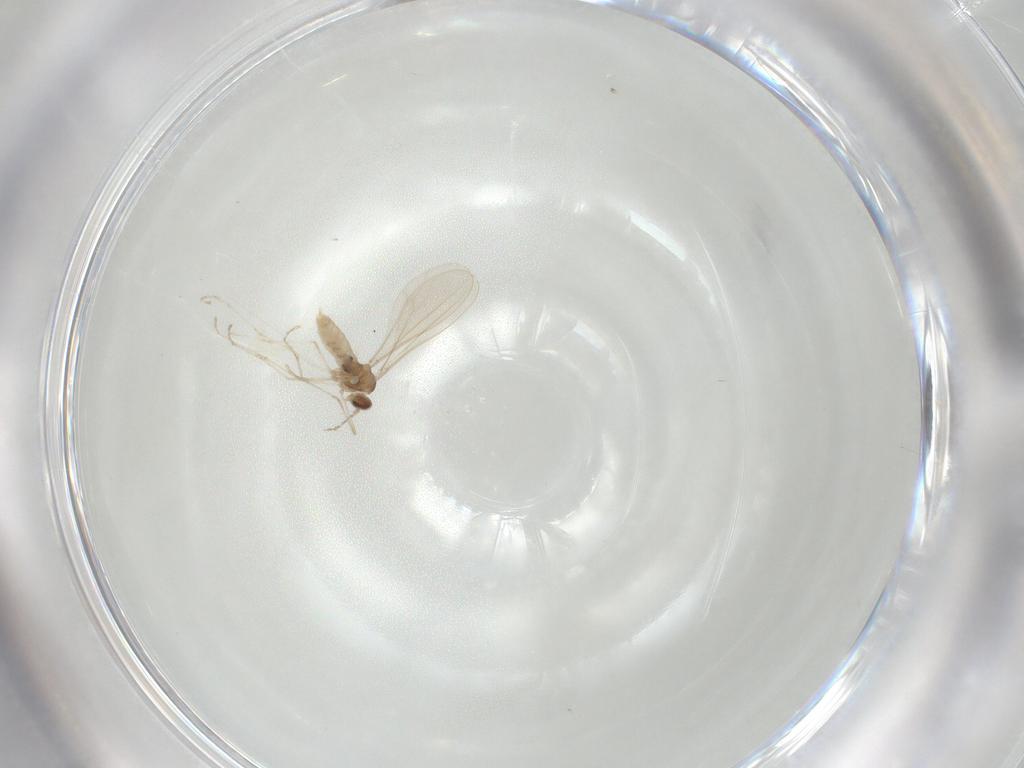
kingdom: Animalia
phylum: Arthropoda
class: Insecta
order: Diptera
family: Cecidomyiidae
